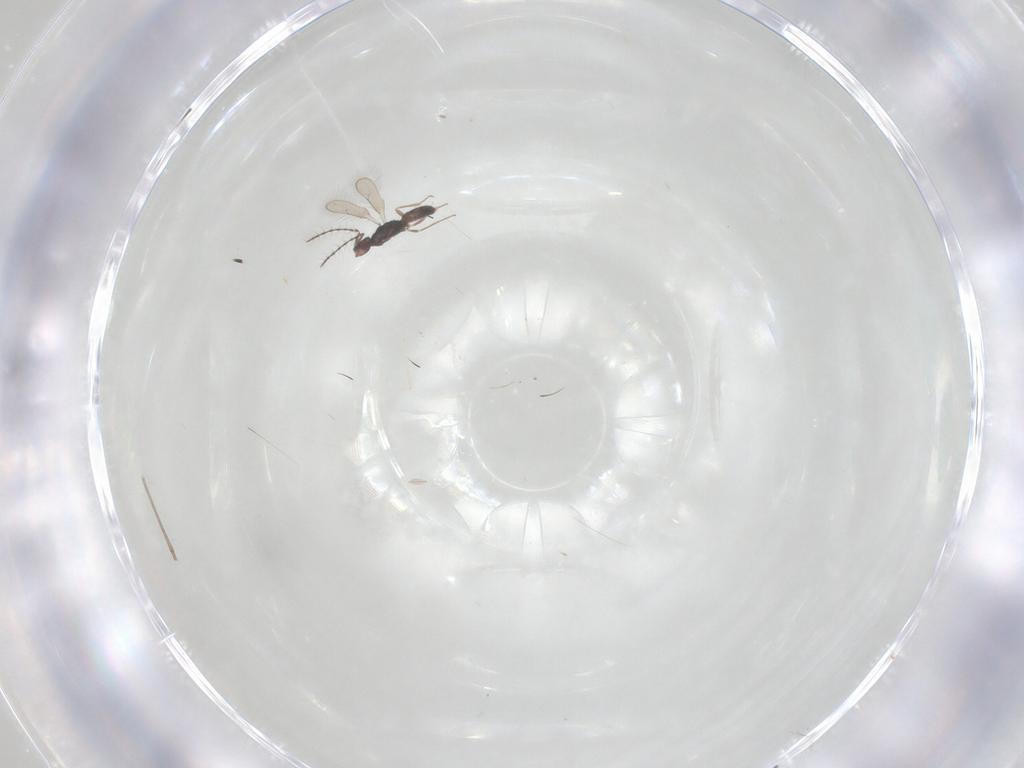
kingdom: Animalia
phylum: Arthropoda
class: Insecta
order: Hymenoptera
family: Pteromalidae
